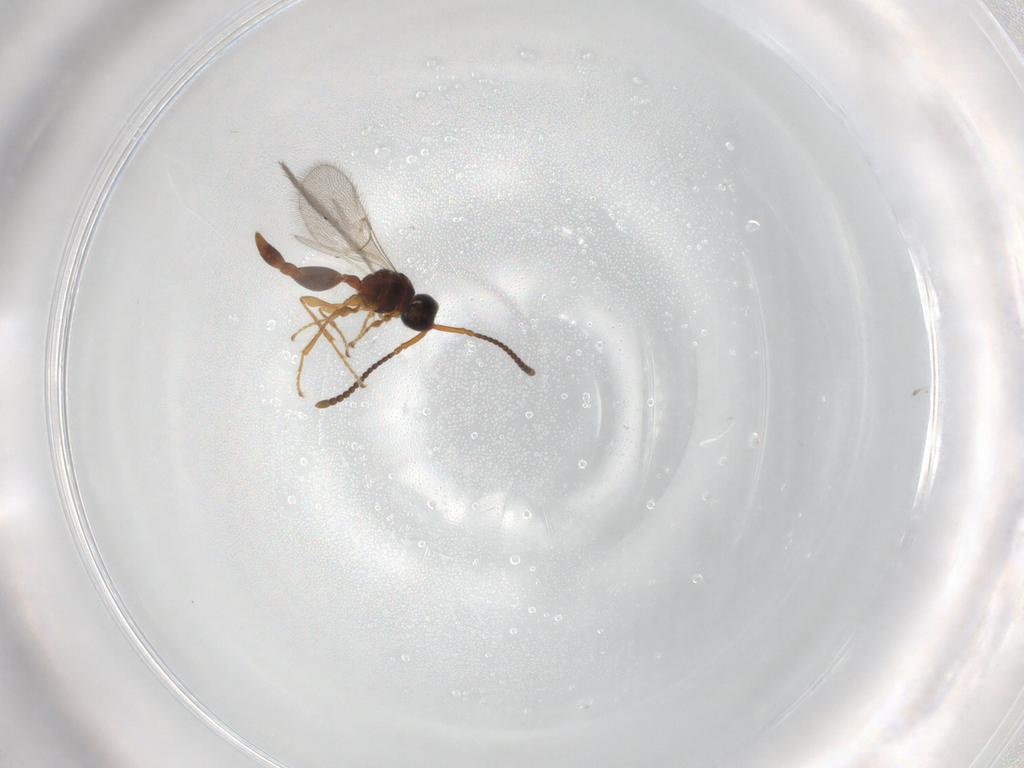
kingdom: Animalia
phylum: Arthropoda
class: Insecta
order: Hymenoptera
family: Diapriidae
